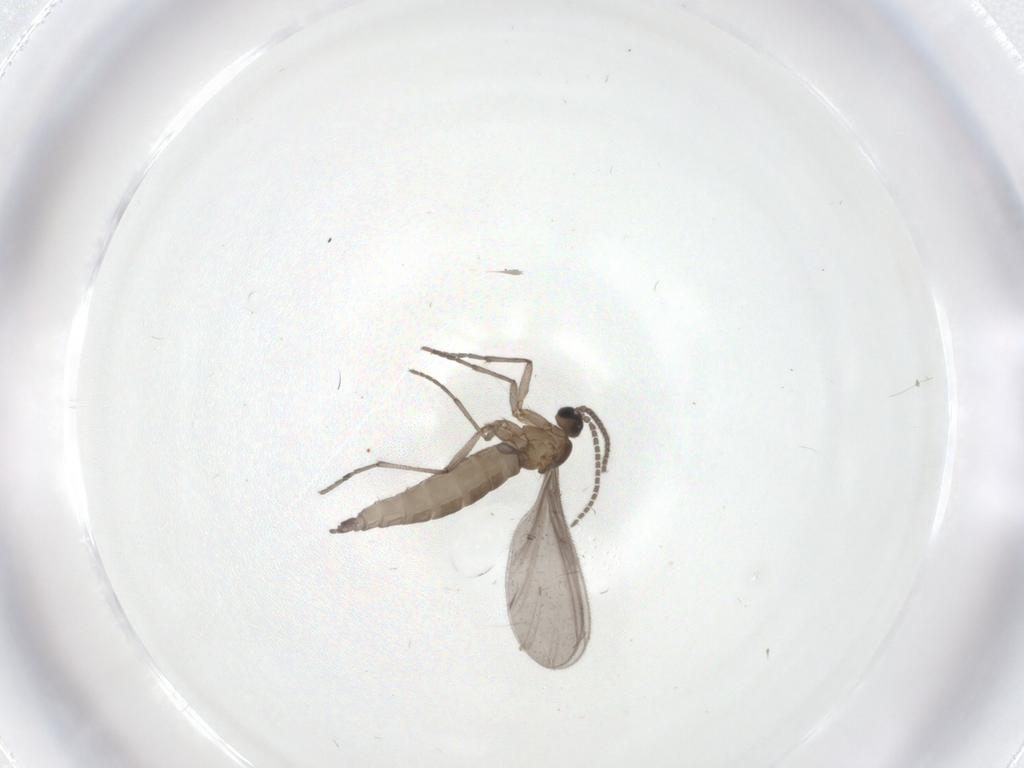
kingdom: Animalia
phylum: Arthropoda
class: Insecta
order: Diptera
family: Sciaridae
